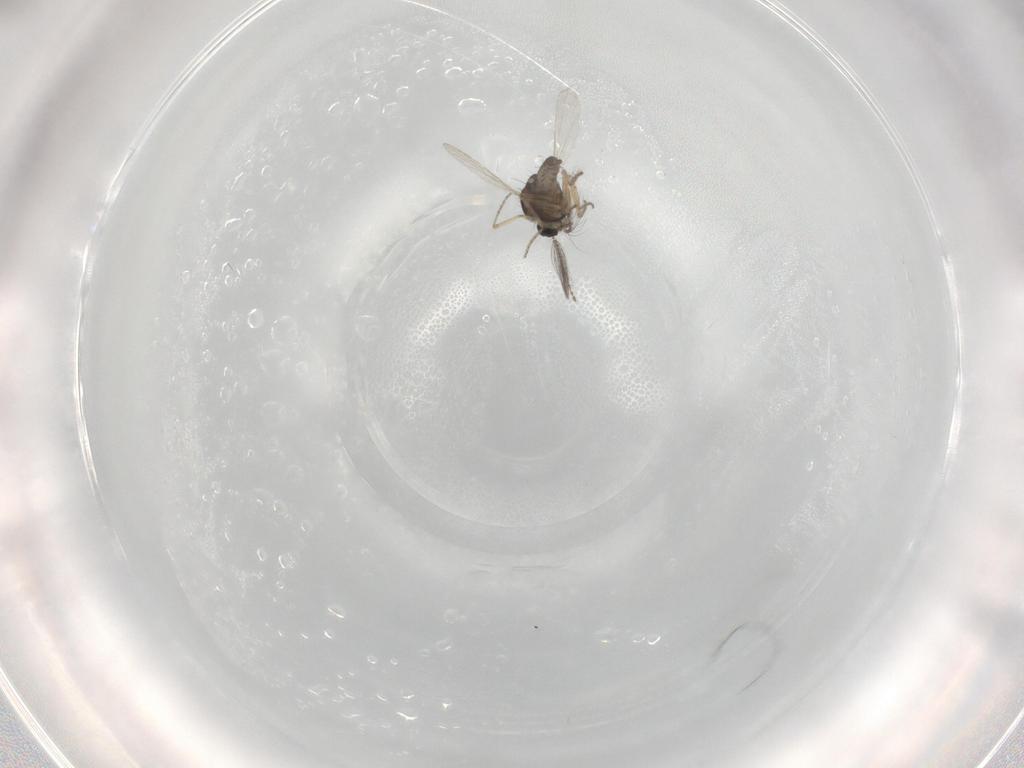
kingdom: Animalia
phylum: Arthropoda
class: Insecta
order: Diptera
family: Ceratopogonidae
